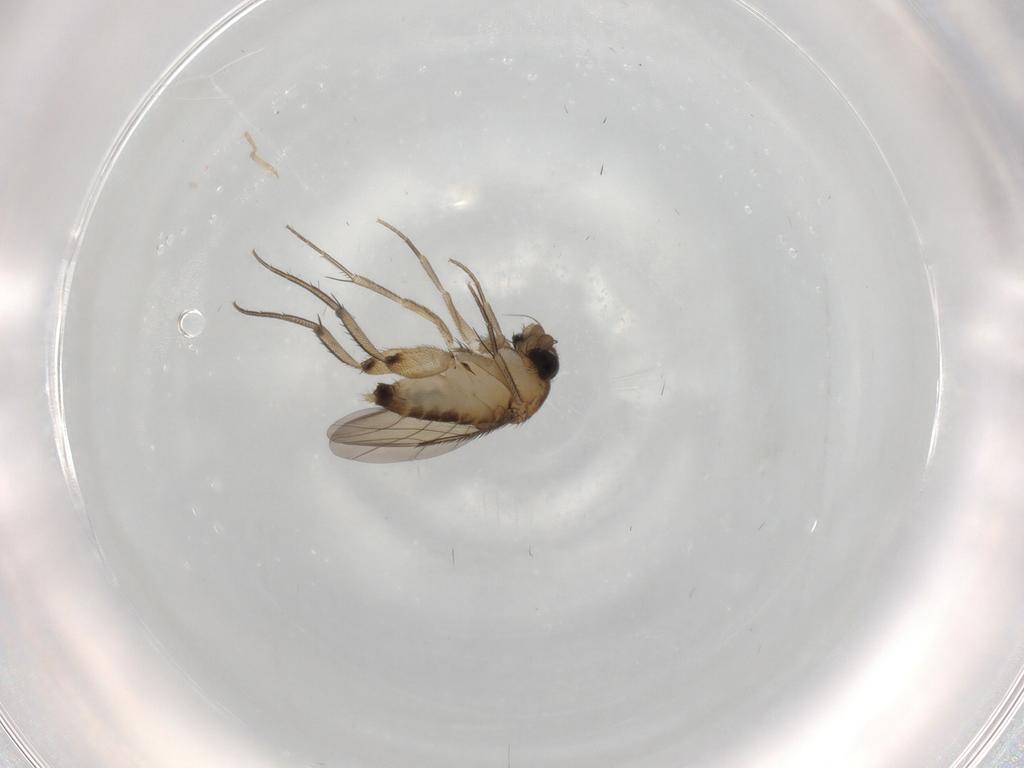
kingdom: Animalia
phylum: Arthropoda
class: Insecta
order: Diptera
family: Phoridae
